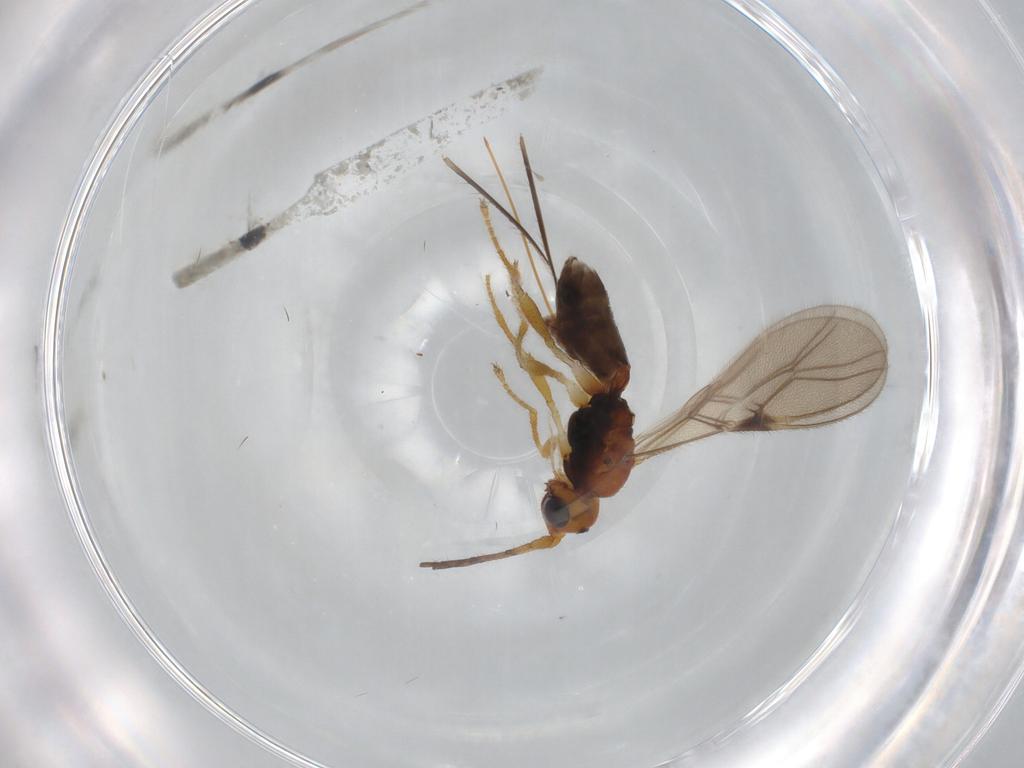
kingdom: Animalia
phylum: Arthropoda
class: Insecta
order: Hymenoptera
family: Braconidae
